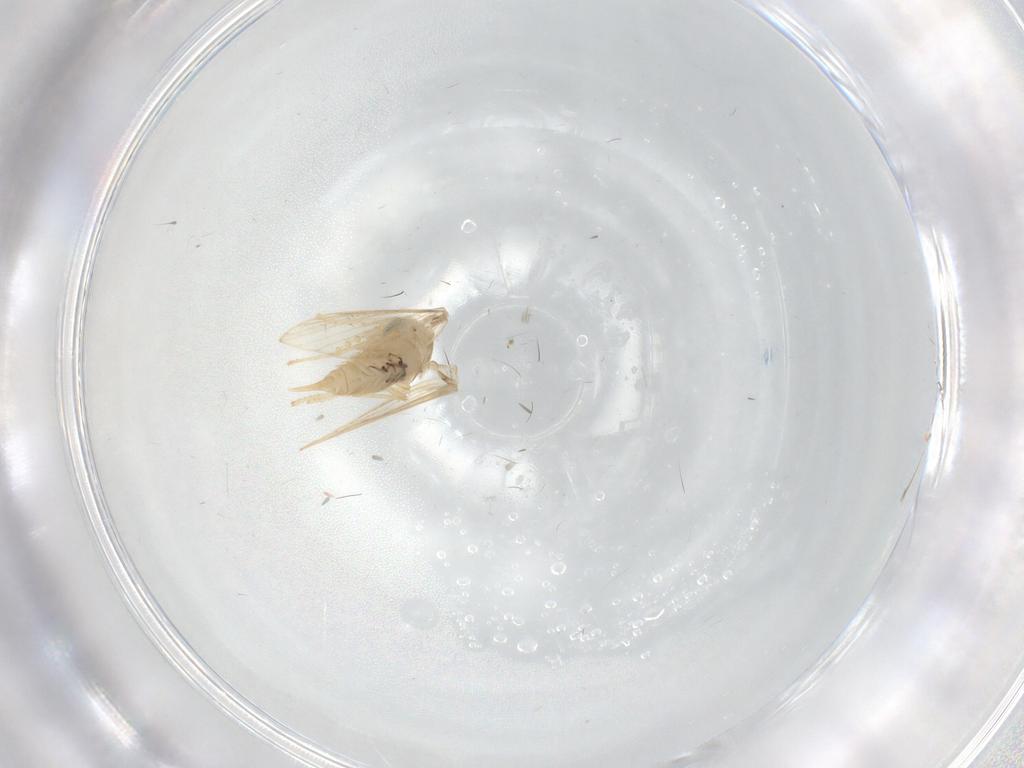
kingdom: Animalia
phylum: Arthropoda
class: Insecta
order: Diptera
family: Psychodidae
